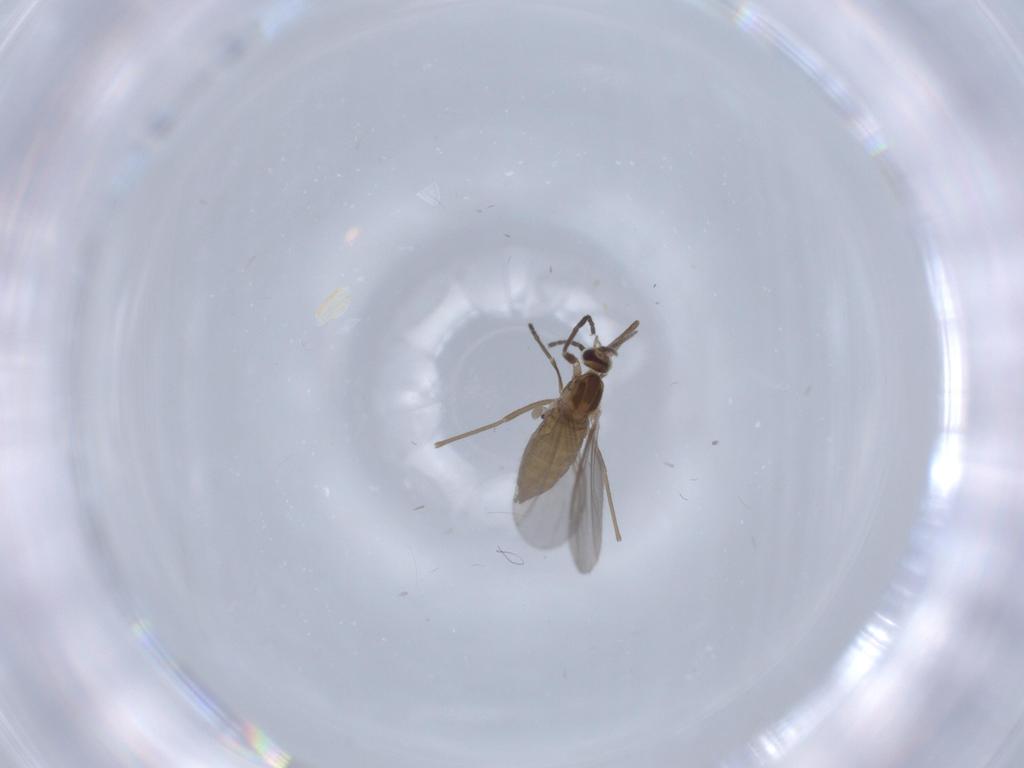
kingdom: Animalia
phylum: Arthropoda
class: Insecta
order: Diptera
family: Cecidomyiidae
